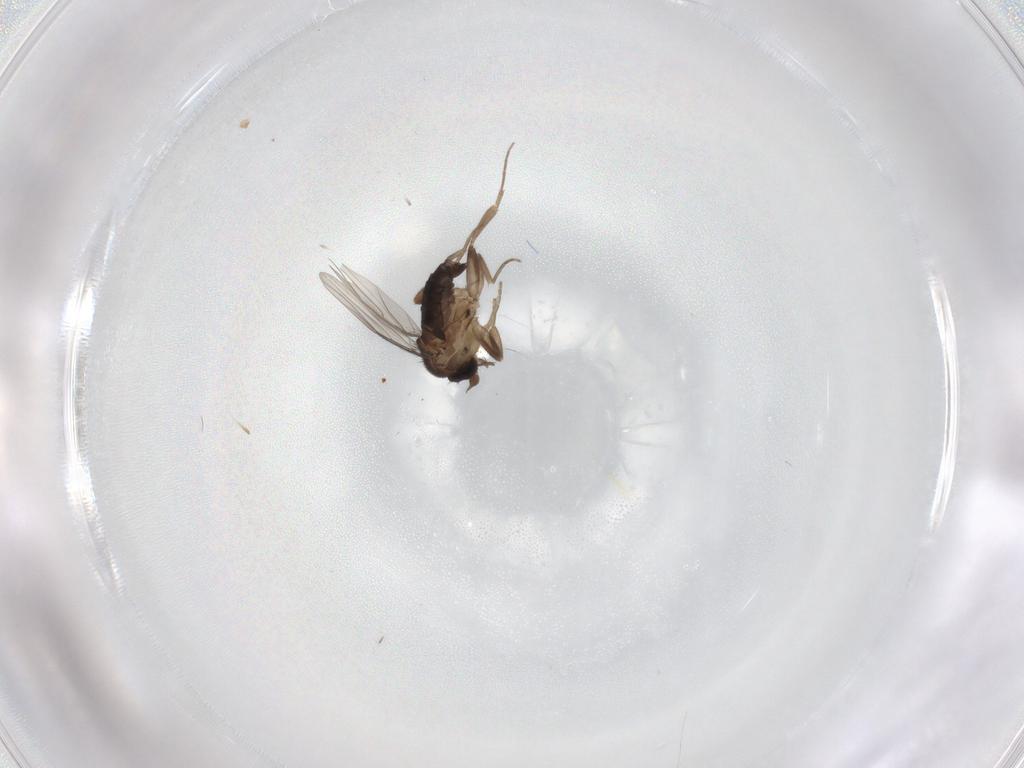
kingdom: Animalia
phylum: Arthropoda
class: Insecta
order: Diptera
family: Phoridae
